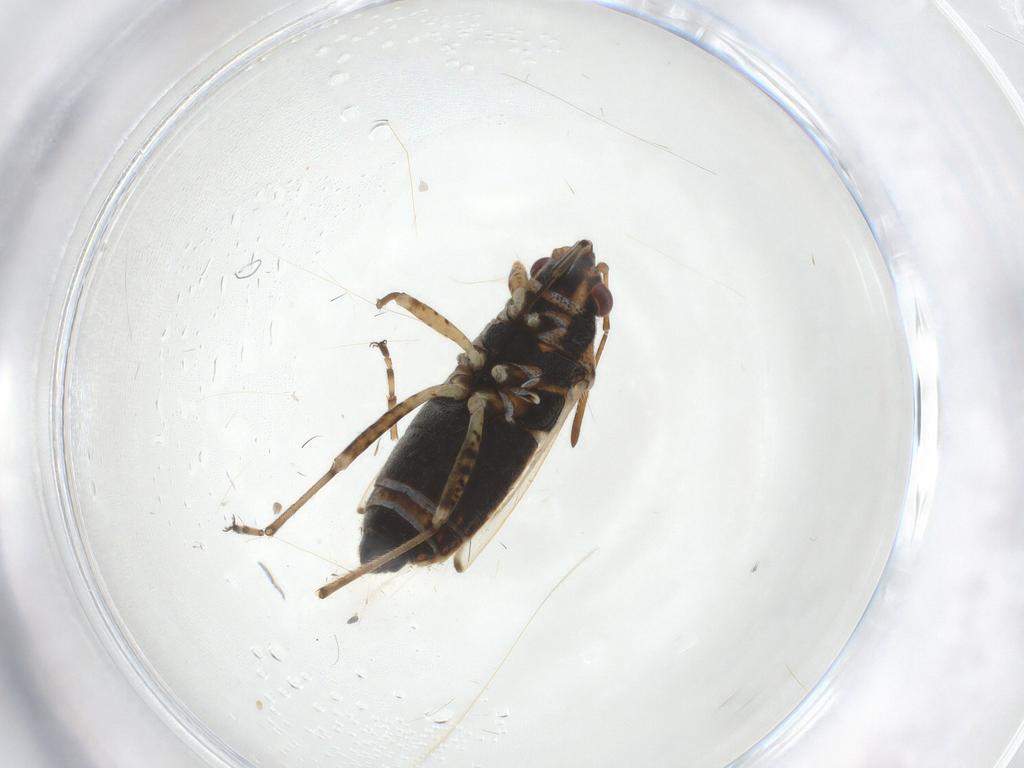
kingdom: Animalia
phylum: Arthropoda
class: Insecta
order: Hemiptera
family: Lygaeidae
